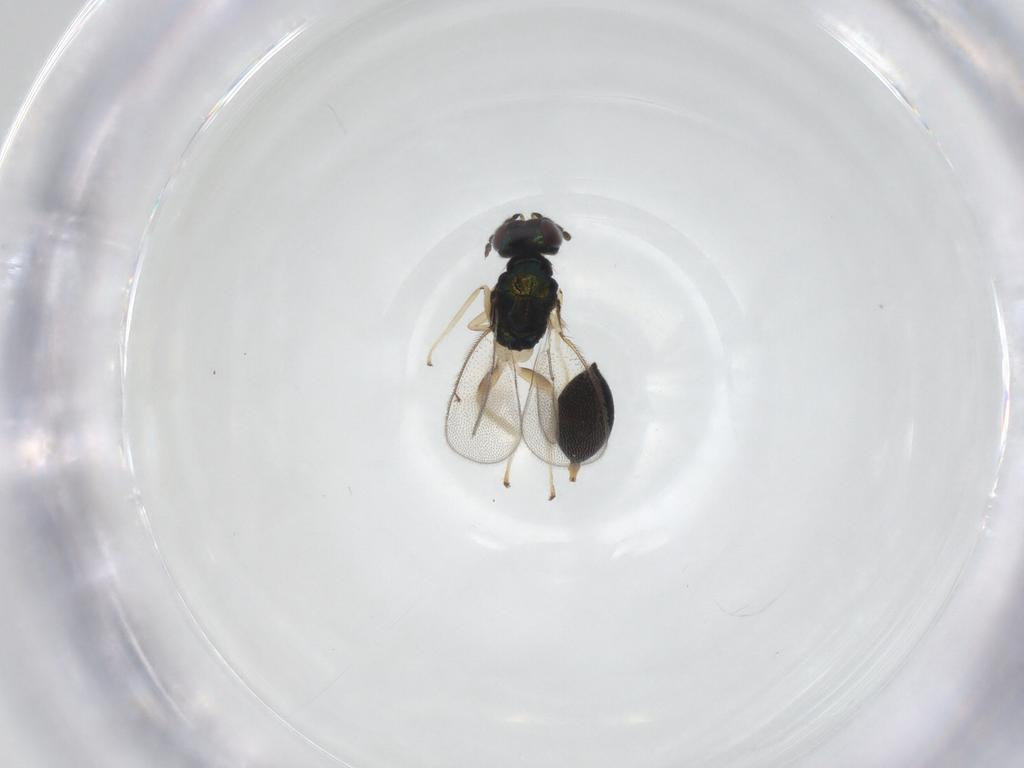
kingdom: Animalia
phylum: Arthropoda
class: Insecta
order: Hymenoptera
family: Eulophidae
